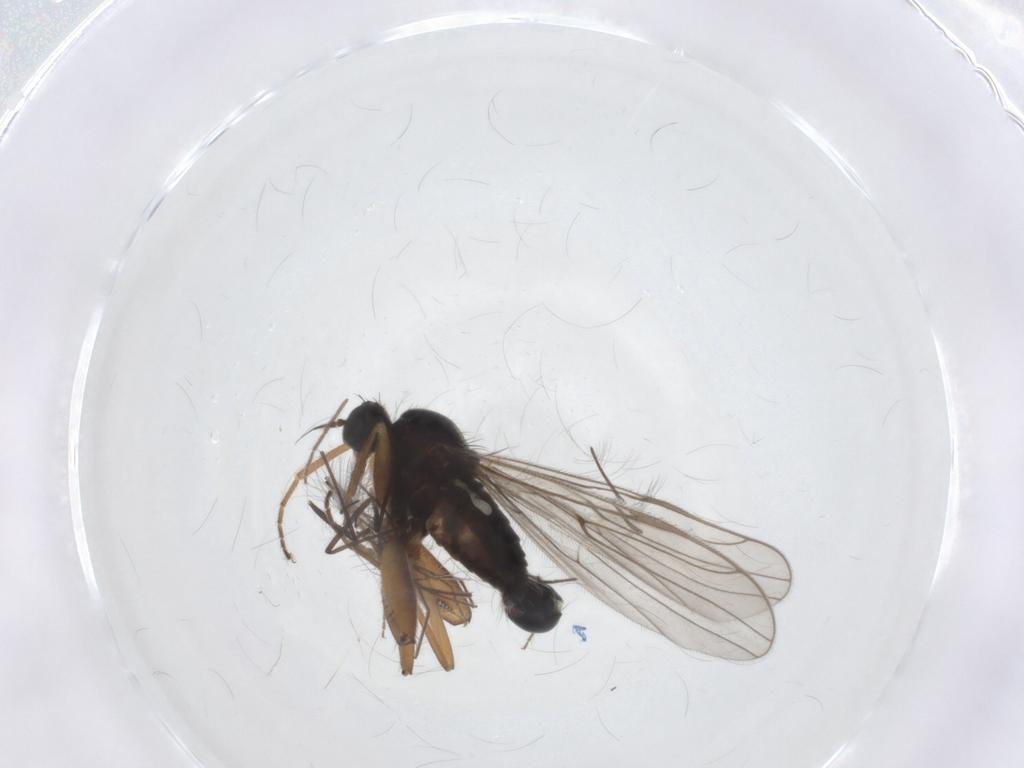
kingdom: Animalia
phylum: Arthropoda
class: Insecta
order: Diptera
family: Hybotidae
